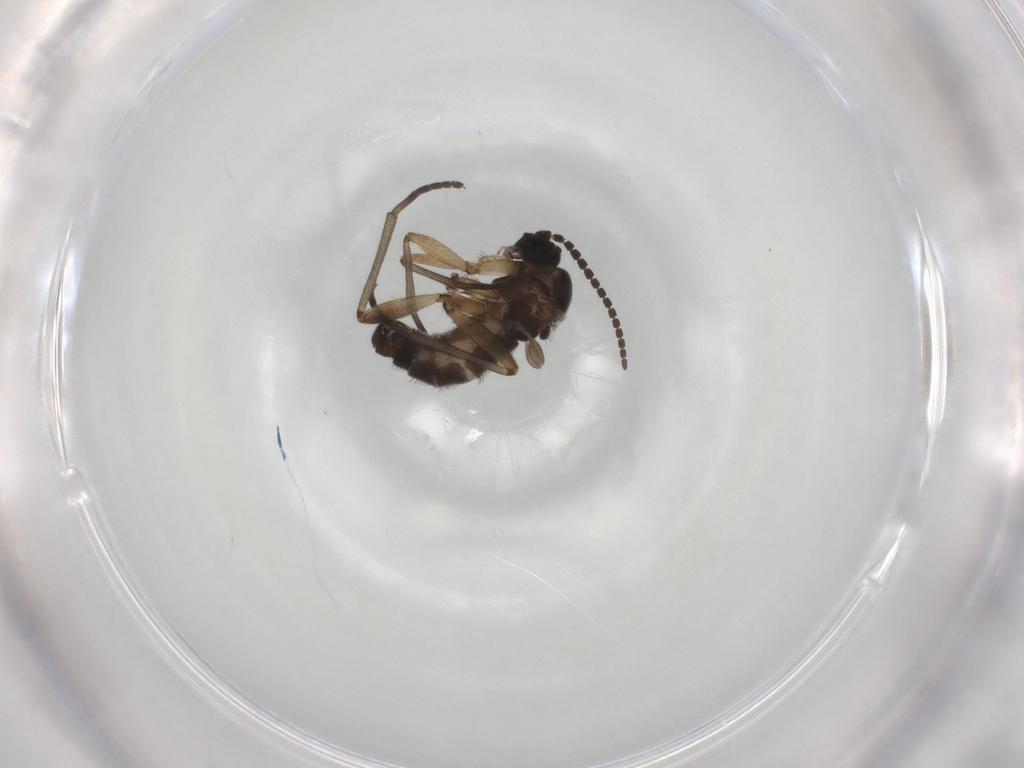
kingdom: Animalia
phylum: Arthropoda
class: Insecta
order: Diptera
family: Sciaridae
